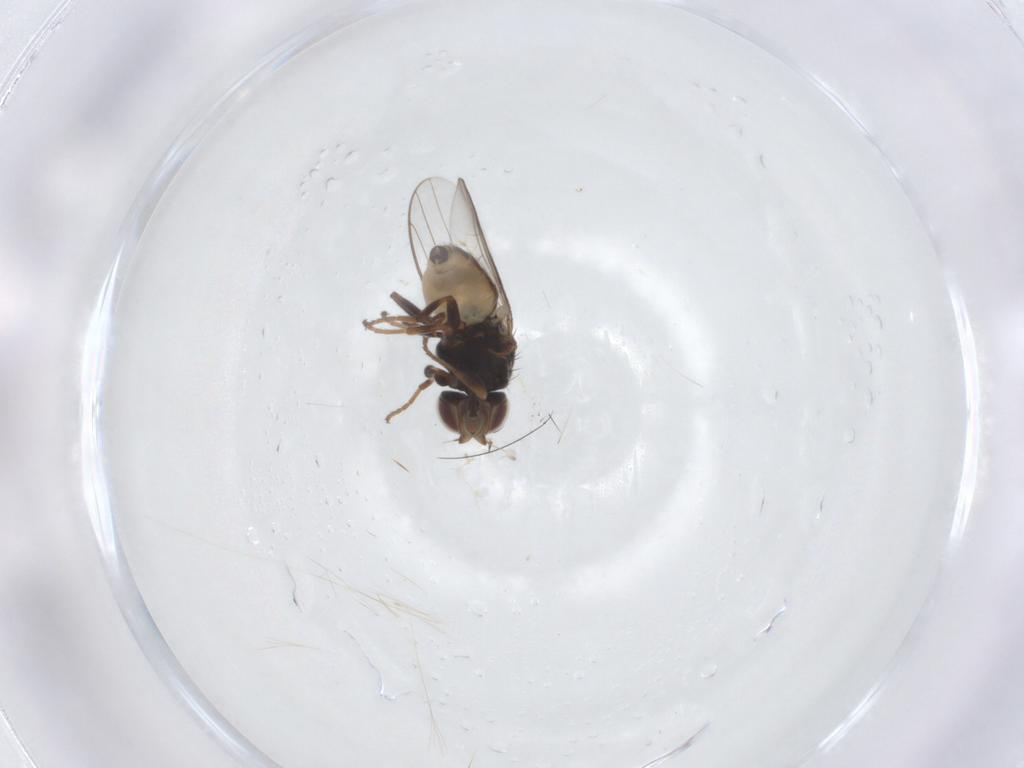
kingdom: Animalia
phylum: Arthropoda
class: Insecta
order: Diptera
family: Chloropidae
